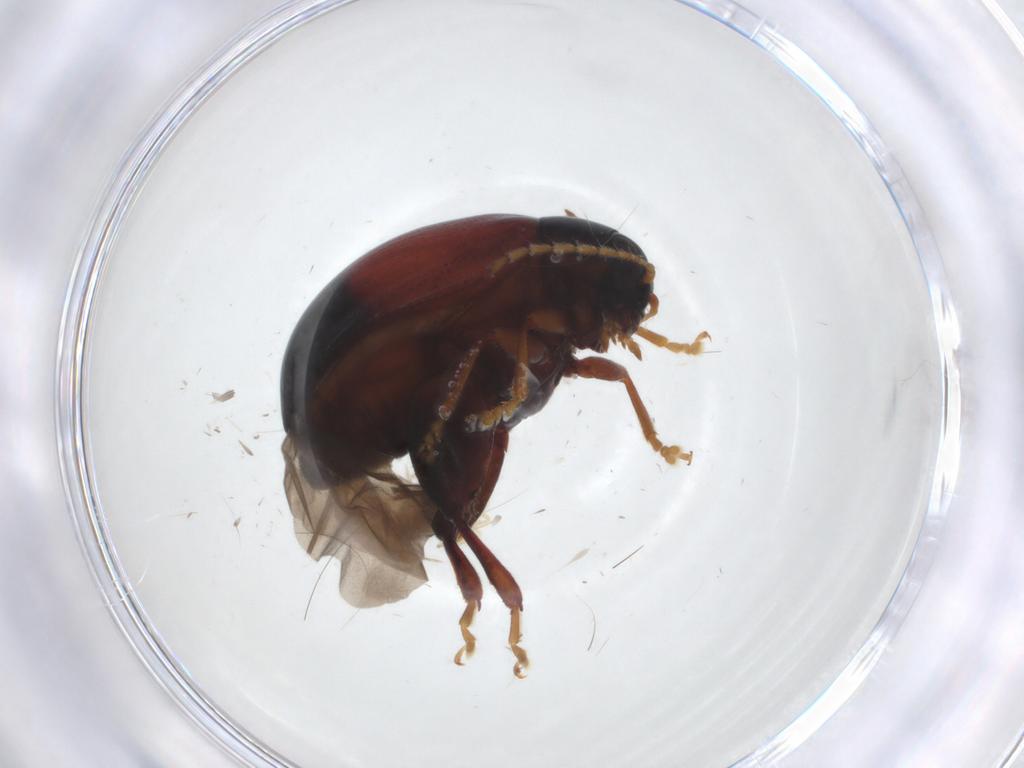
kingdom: Animalia
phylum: Arthropoda
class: Insecta
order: Coleoptera
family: Chrysomelidae
